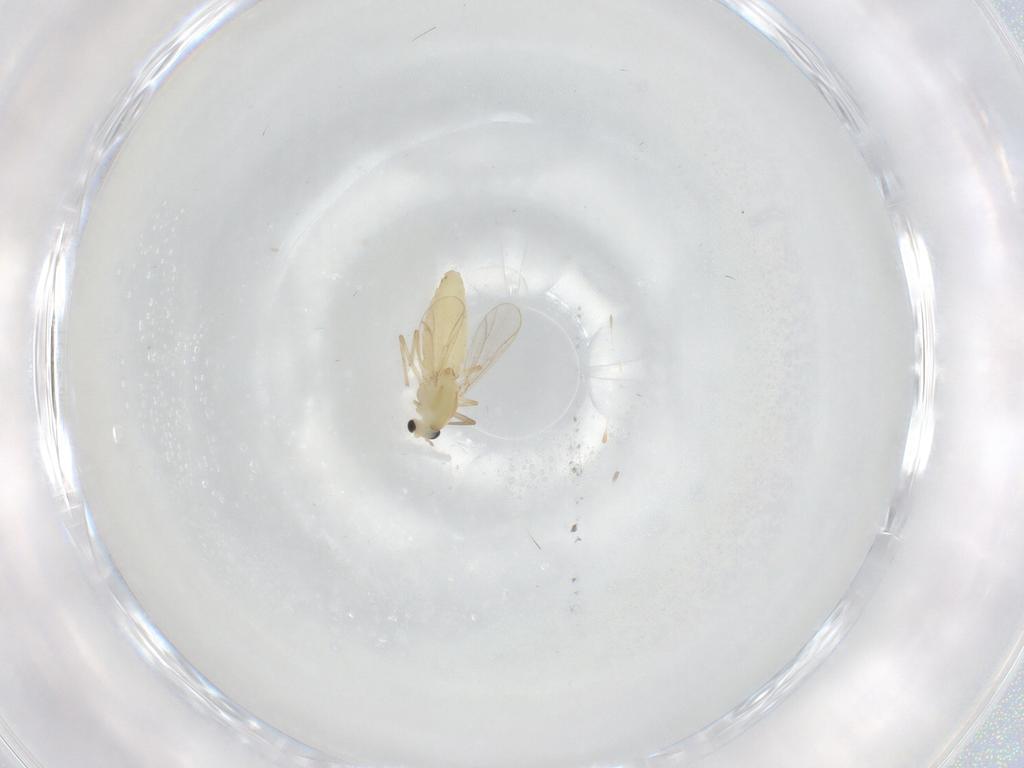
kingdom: Animalia
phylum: Arthropoda
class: Insecta
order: Diptera
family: Chironomidae
